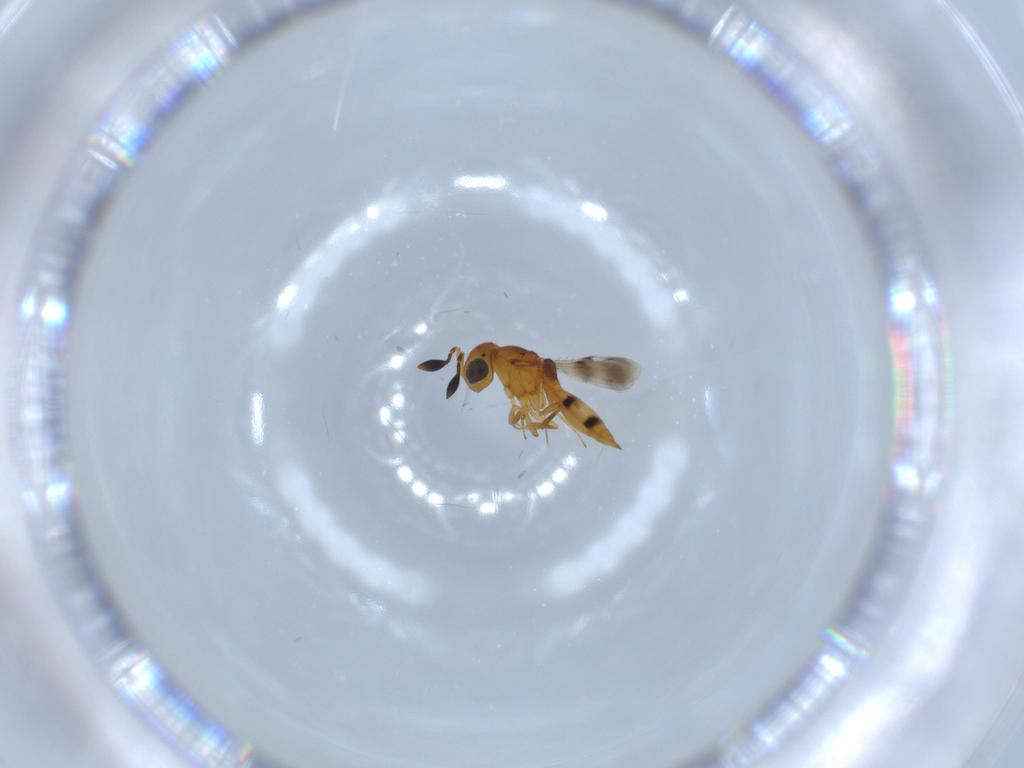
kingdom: Animalia
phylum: Arthropoda
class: Insecta
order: Hymenoptera
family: Scelionidae
